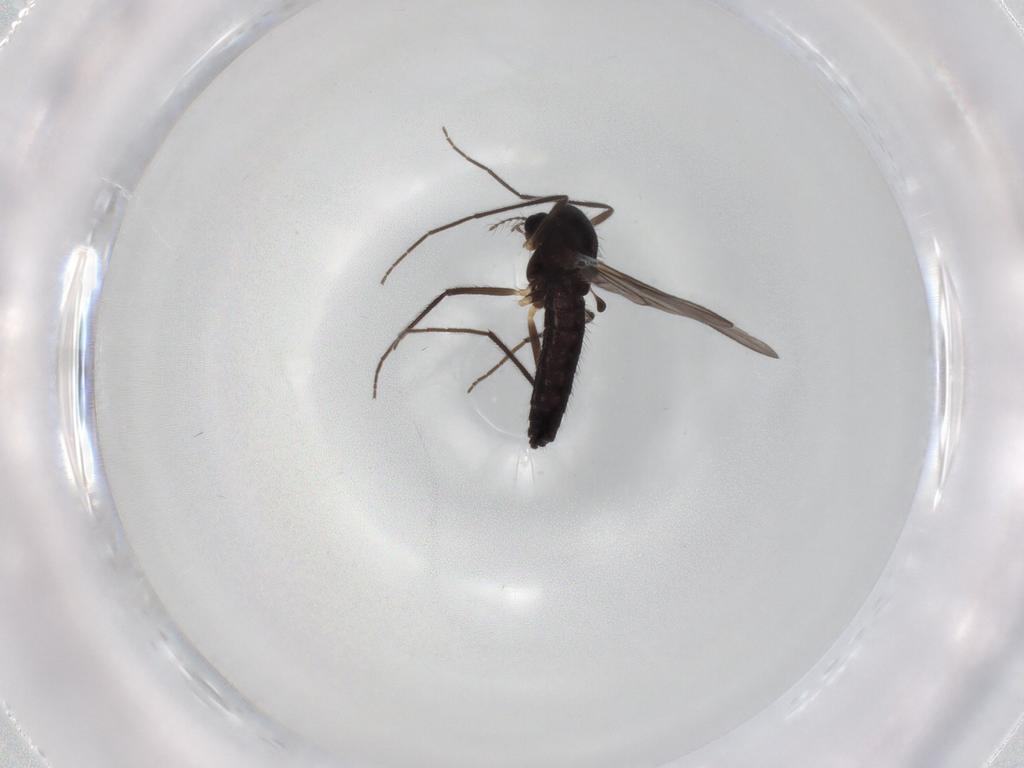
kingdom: Animalia
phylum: Arthropoda
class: Insecta
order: Diptera
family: Chironomidae
